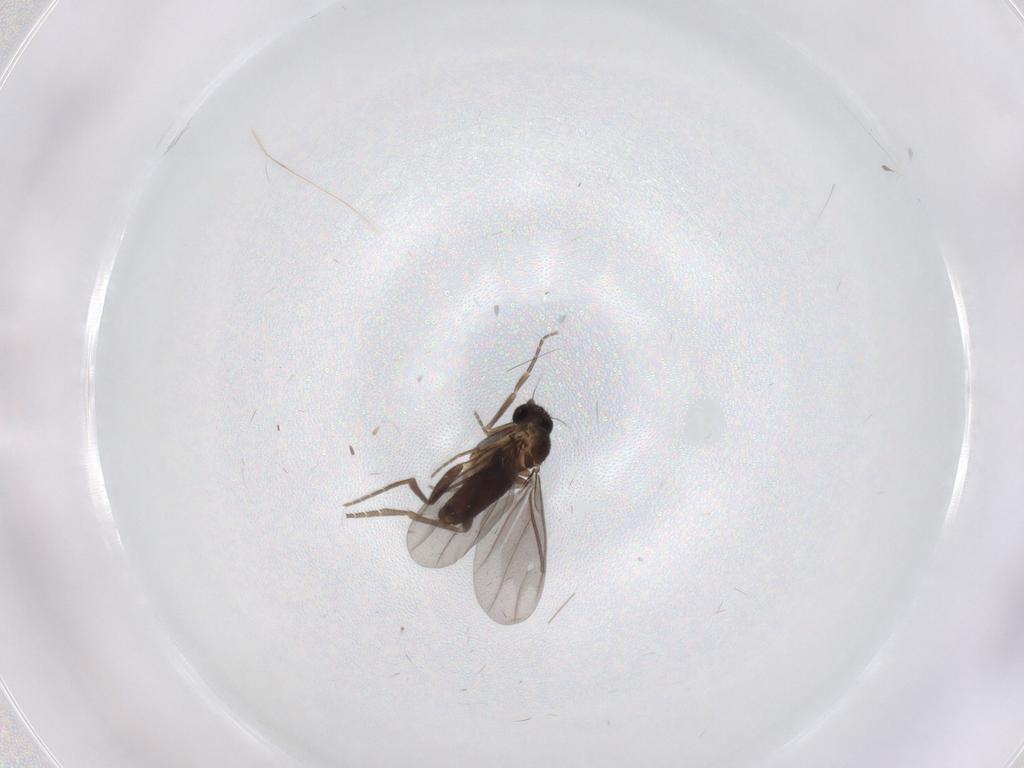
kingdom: Animalia
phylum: Arthropoda
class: Insecta
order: Diptera
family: Phoridae
